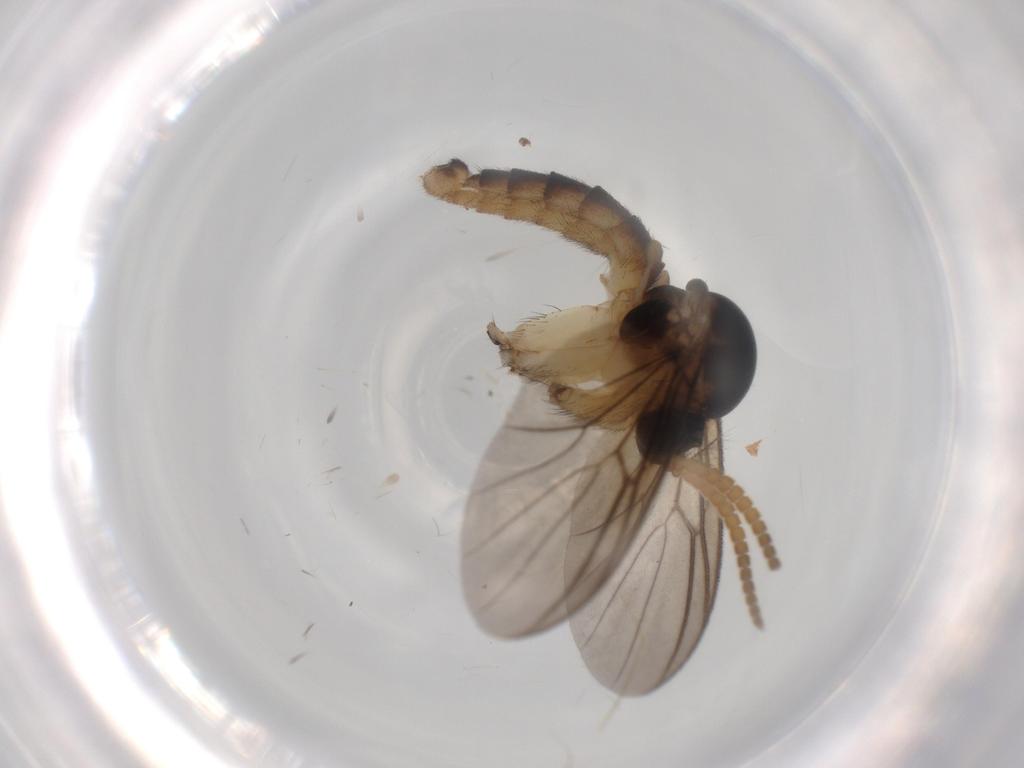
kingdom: Animalia
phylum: Arthropoda
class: Insecta
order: Diptera
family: Mycetophilidae
